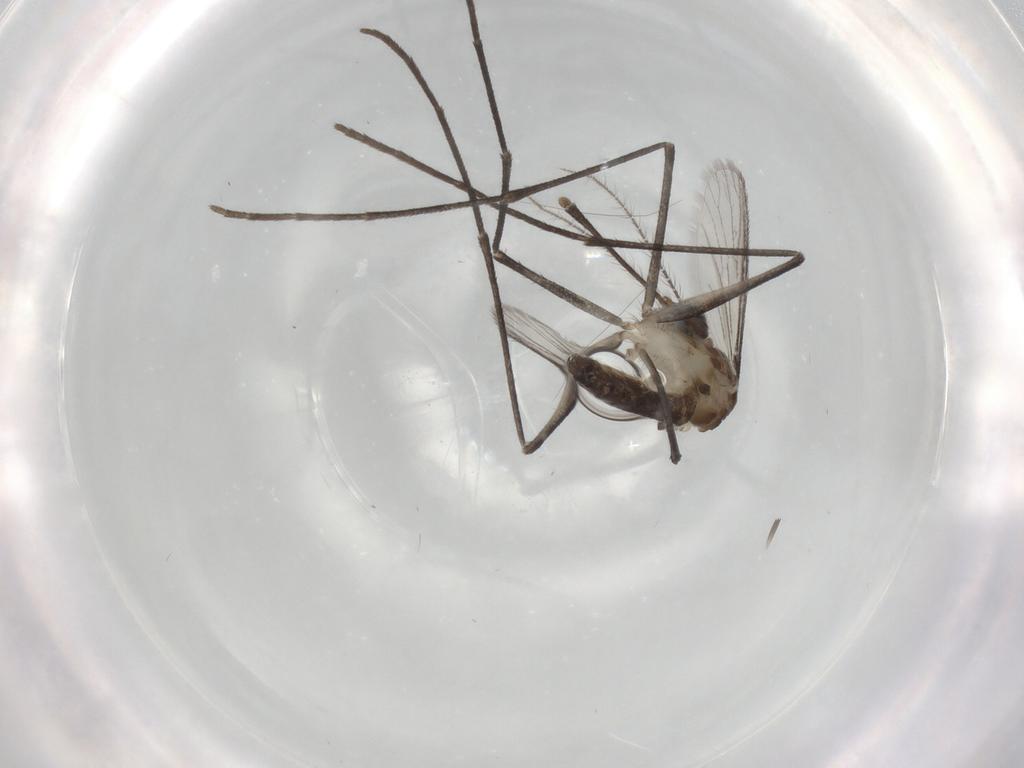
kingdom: Animalia
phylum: Arthropoda
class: Insecta
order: Diptera
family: Culicidae
